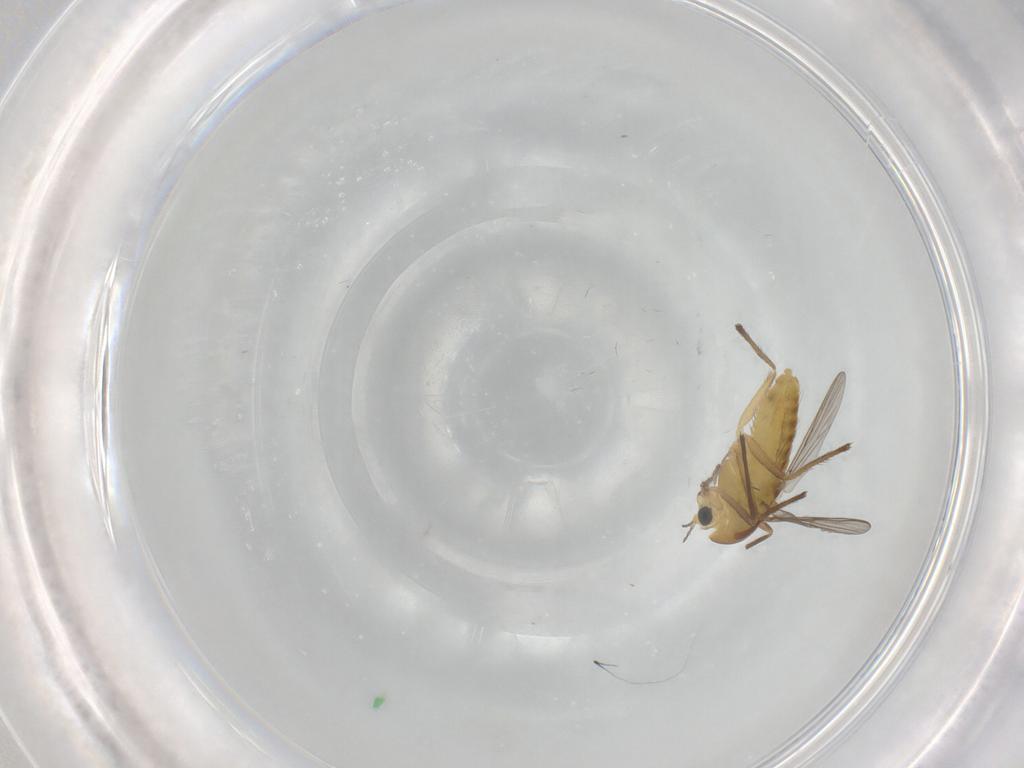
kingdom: Animalia
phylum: Arthropoda
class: Insecta
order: Diptera
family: Chironomidae
